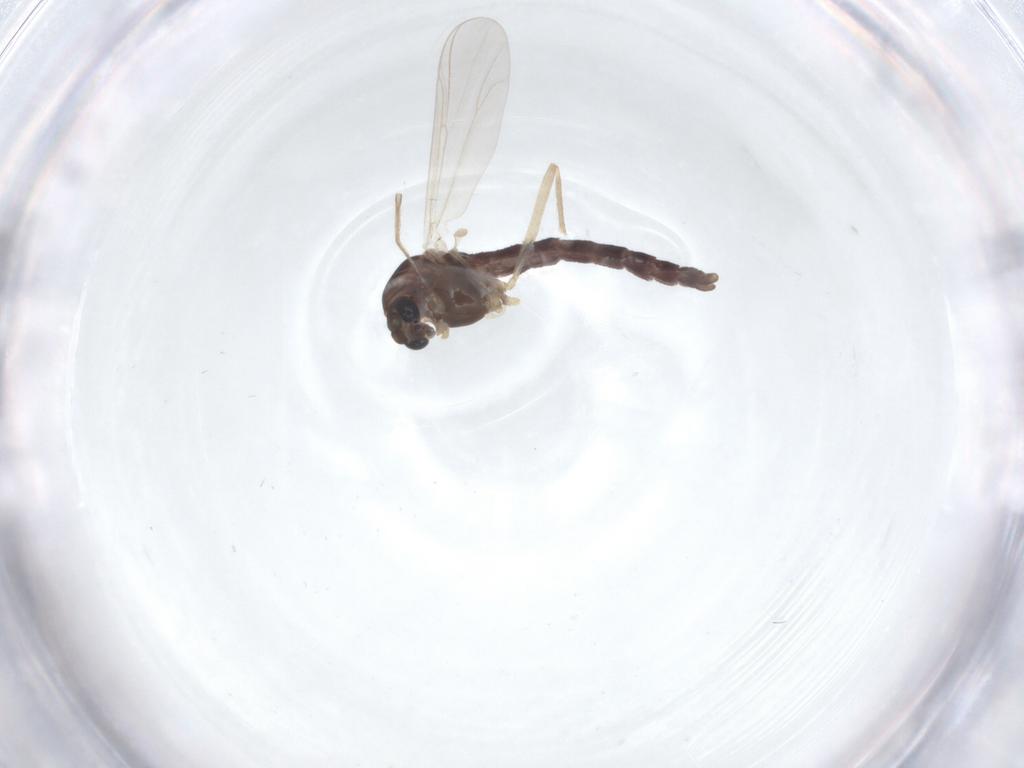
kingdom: Animalia
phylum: Arthropoda
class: Insecta
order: Diptera
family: Chironomidae
